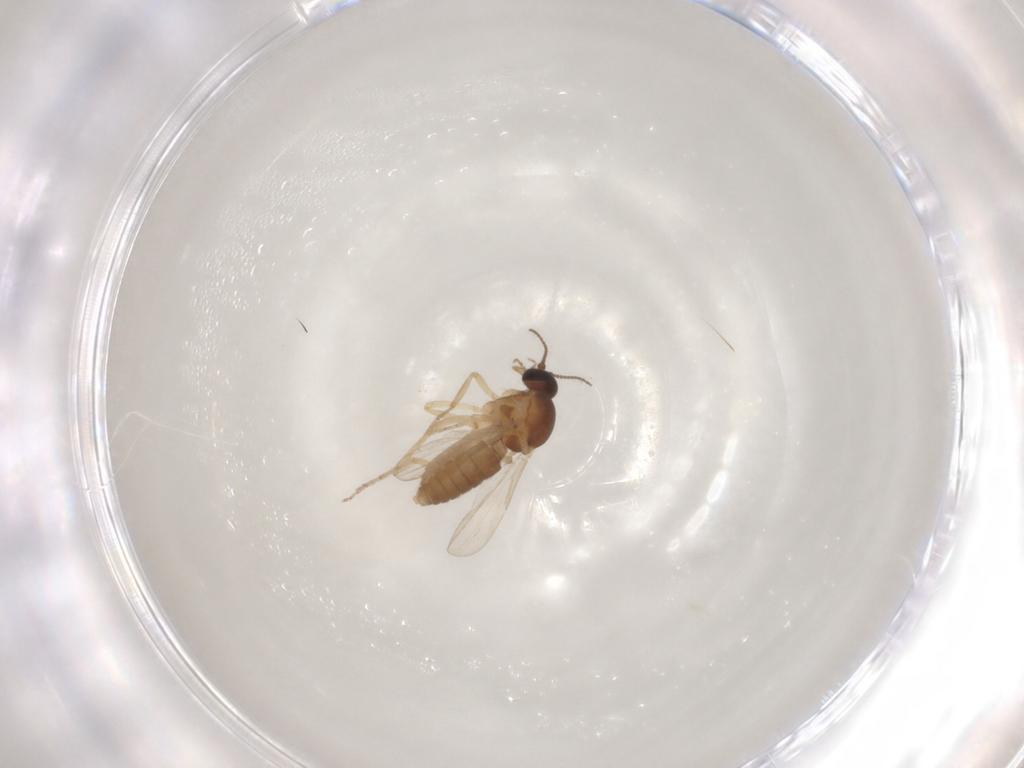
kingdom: Animalia
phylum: Arthropoda
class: Insecta
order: Diptera
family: Ceratopogonidae
